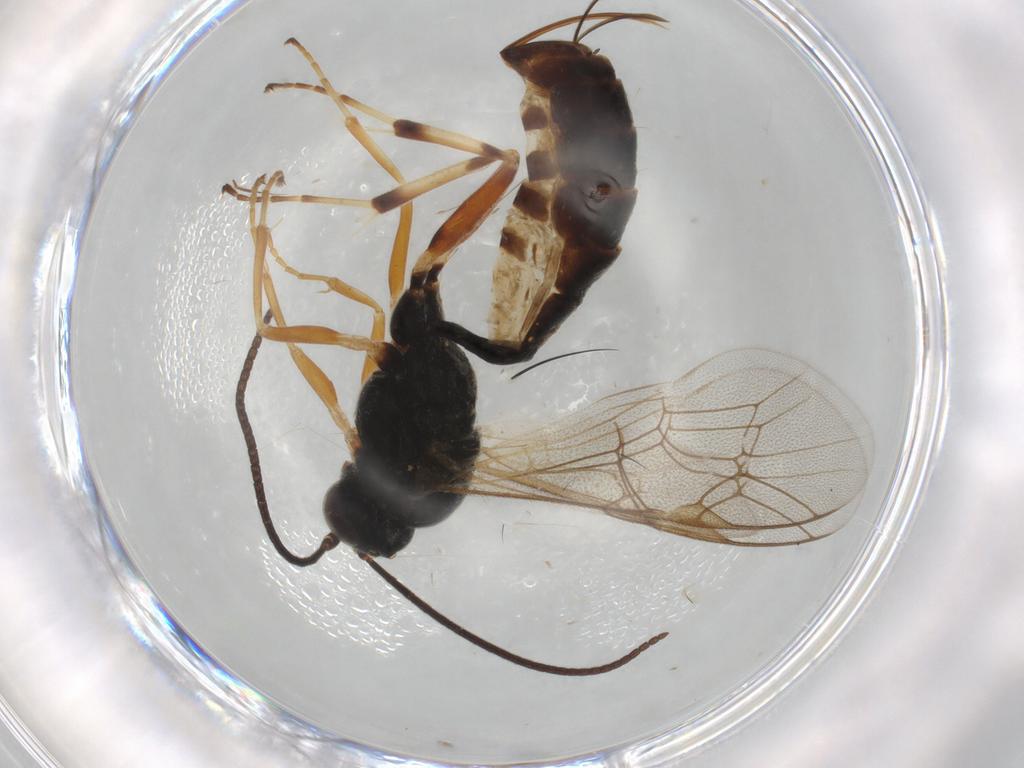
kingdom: Animalia
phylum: Arthropoda
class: Insecta
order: Hymenoptera
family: Ichneumonidae
